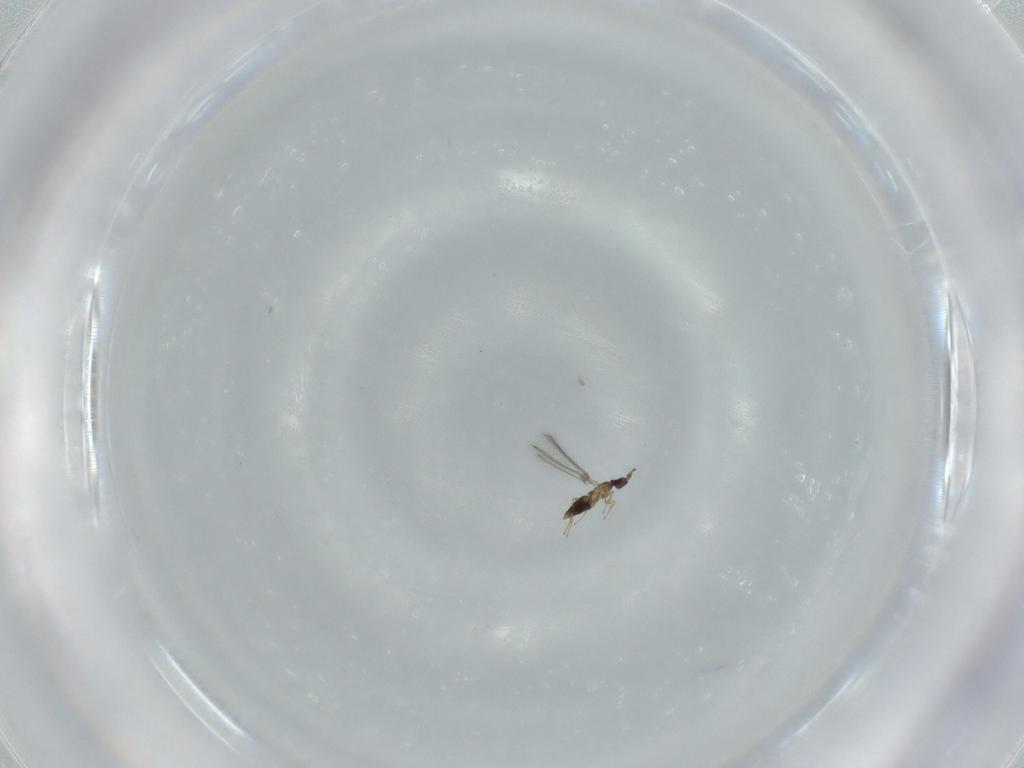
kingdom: Animalia
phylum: Arthropoda
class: Insecta
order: Hymenoptera
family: Mymaridae
